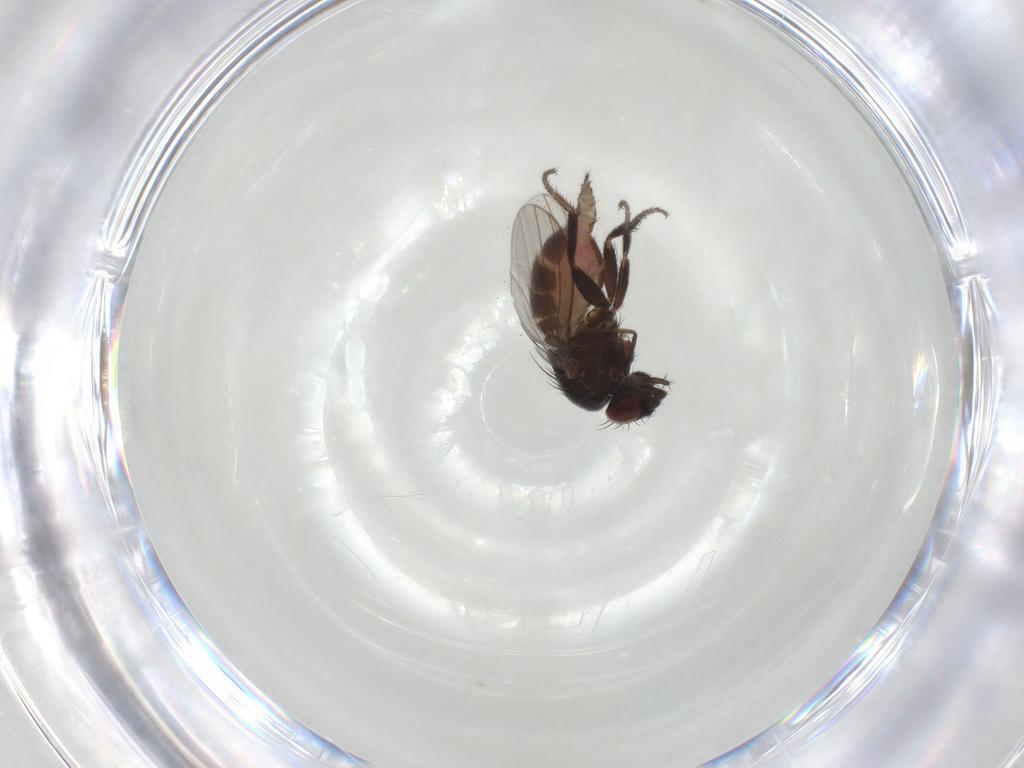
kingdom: Animalia
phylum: Arthropoda
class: Insecta
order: Diptera
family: Milichiidae
